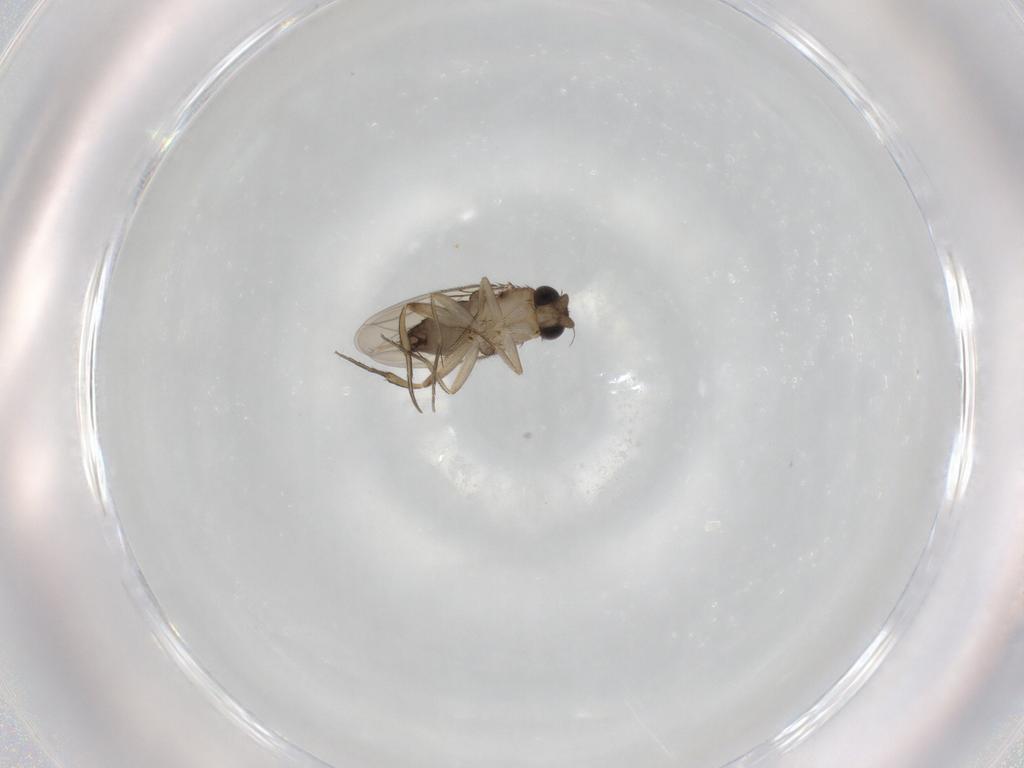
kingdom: Animalia
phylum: Arthropoda
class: Insecta
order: Diptera
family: Phoridae
